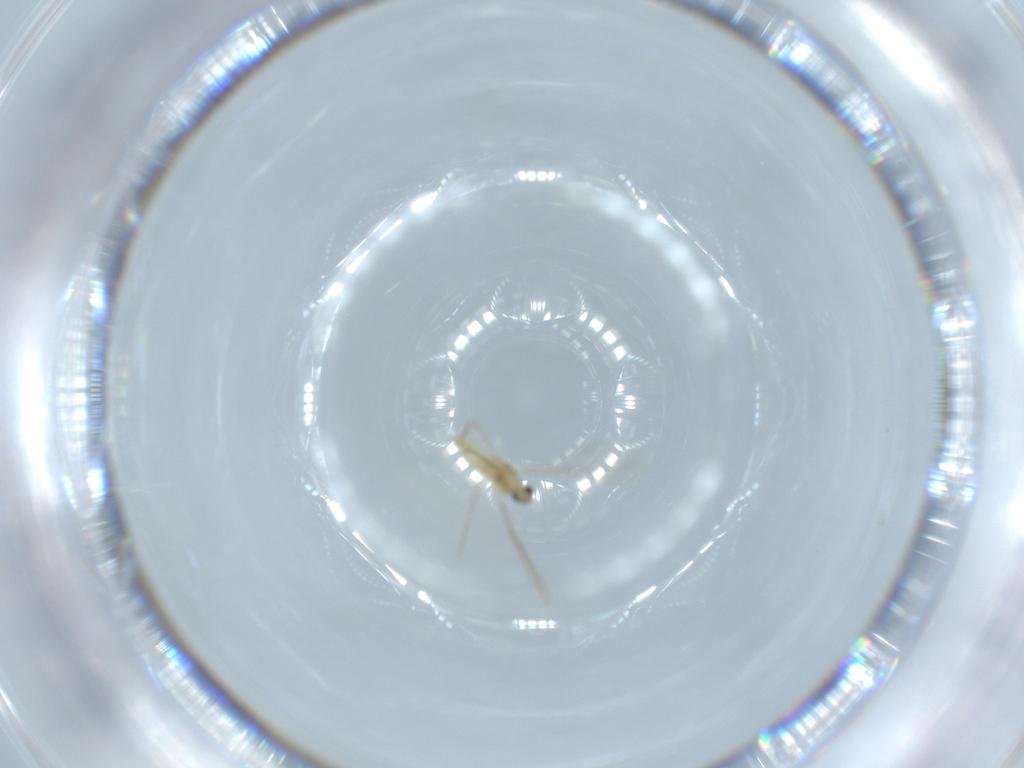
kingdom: Animalia
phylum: Arthropoda
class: Insecta
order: Diptera
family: Cecidomyiidae
